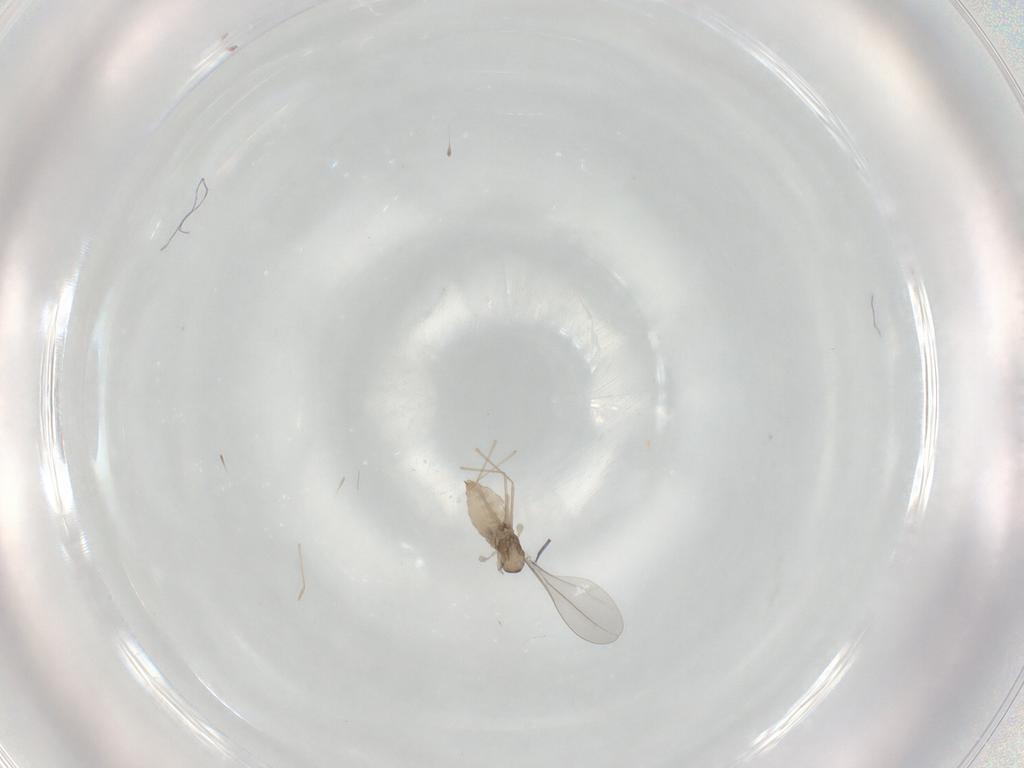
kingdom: Animalia
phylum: Arthropoda
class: Insecta
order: Diptera
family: Cecidomyiidae
